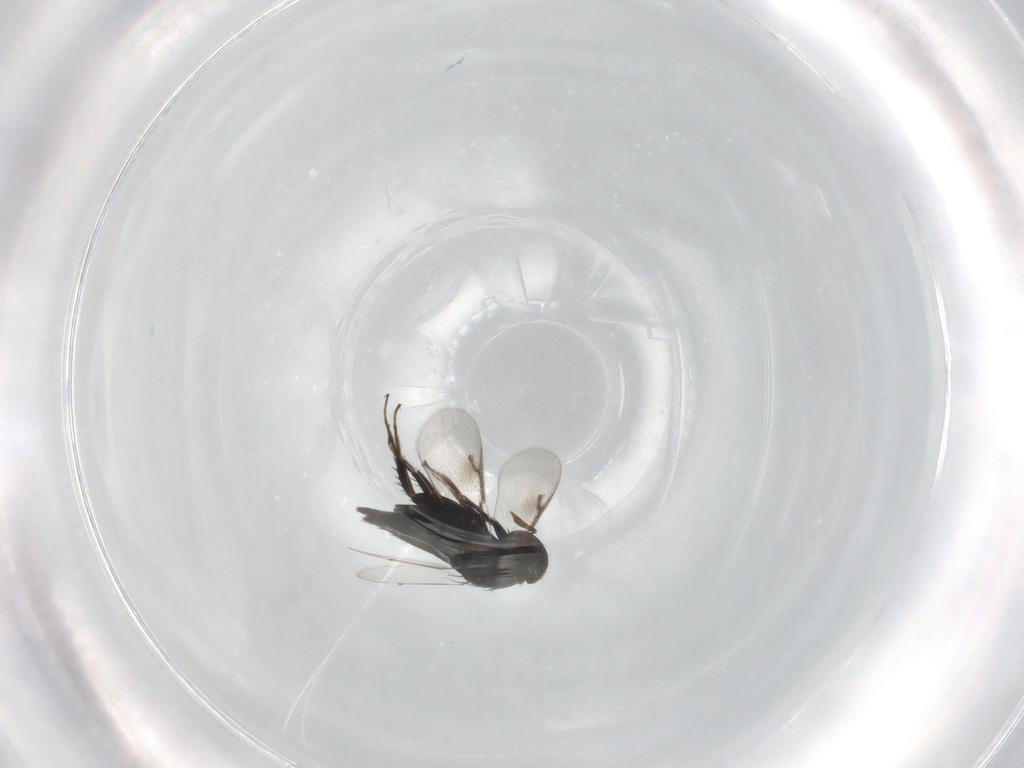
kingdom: Animalia
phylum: Arthropoda
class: Insecta
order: Hymenoptera
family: Pirenidae
